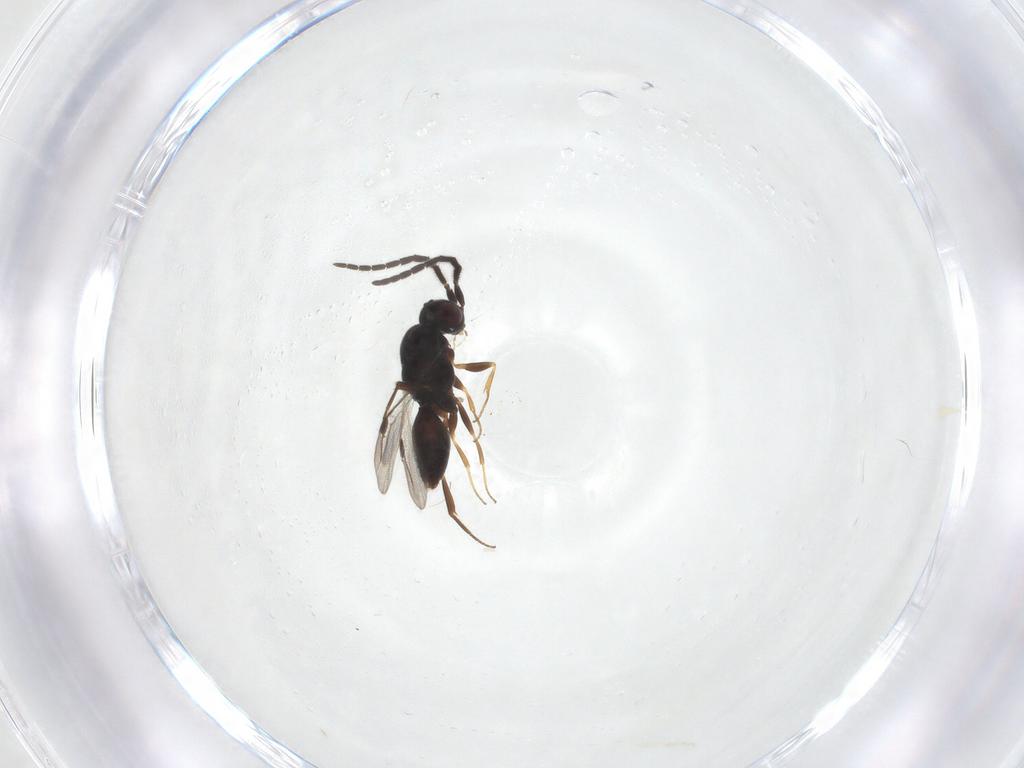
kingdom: Animalia
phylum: Arthropoda
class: Insecta
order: Hymenoptera
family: Megaspilidae
